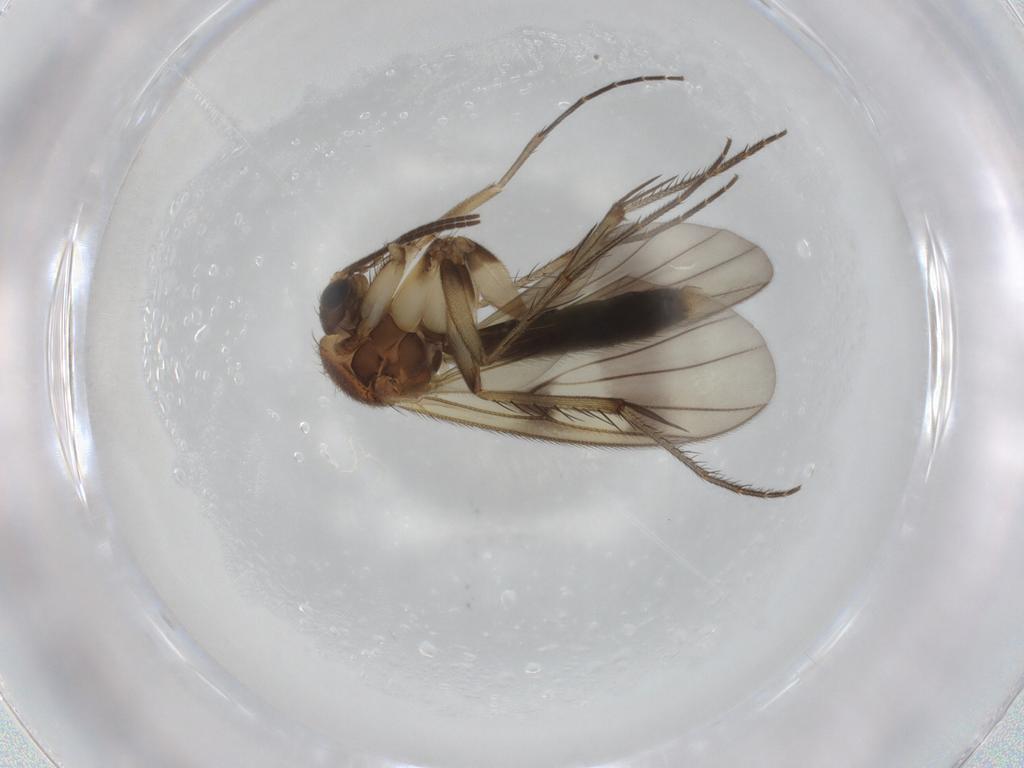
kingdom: Animalia
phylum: Arthropoda
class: Insecta
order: Diptera
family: Mycetophilidae
